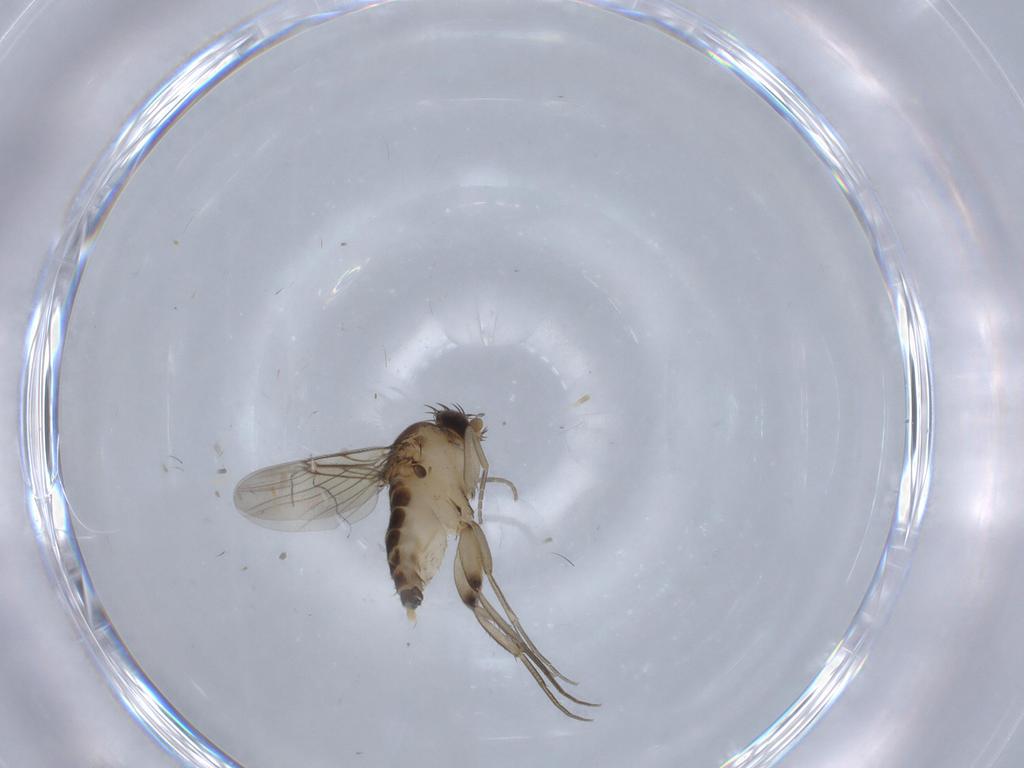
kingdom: Animalia
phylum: Arthropoda
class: Insecta
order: Diptera
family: Phoridae
